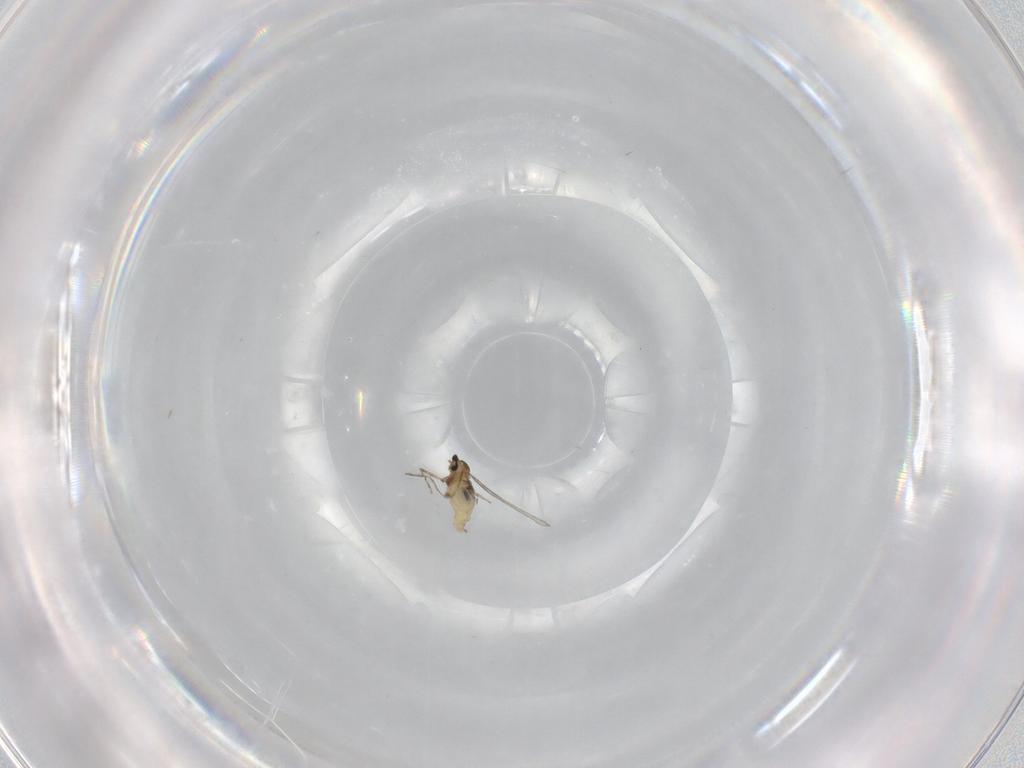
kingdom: Animalia
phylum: Arthropoda
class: Insecta
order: Diptera
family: Cecidomyiidae
